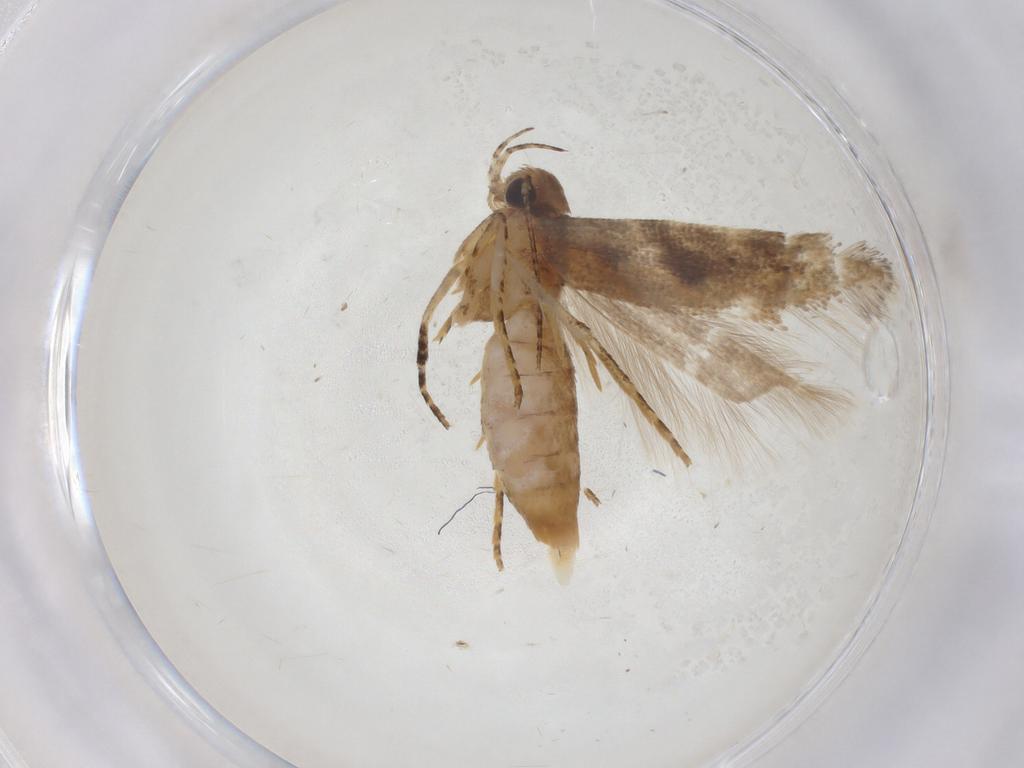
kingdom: Animalia
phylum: Arthropoda
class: Insecta
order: Lepidoptera
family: Gelechiidae
